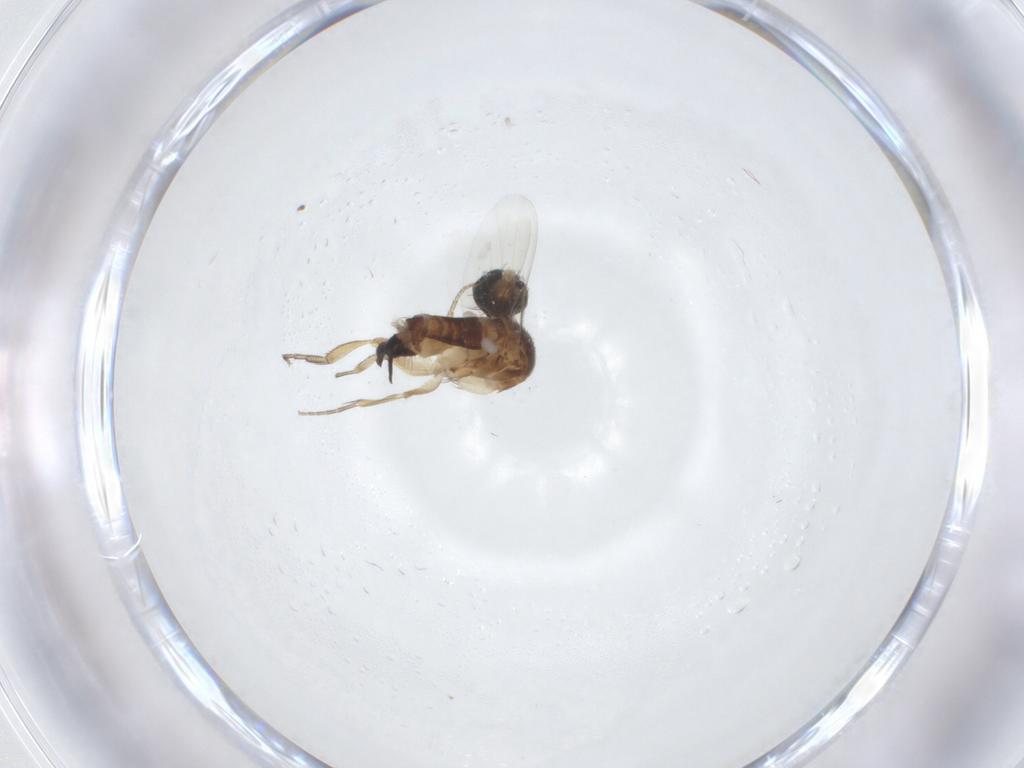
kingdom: Animalia
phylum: Arthropoda
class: Insecta
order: Diptera
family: Phoridae
